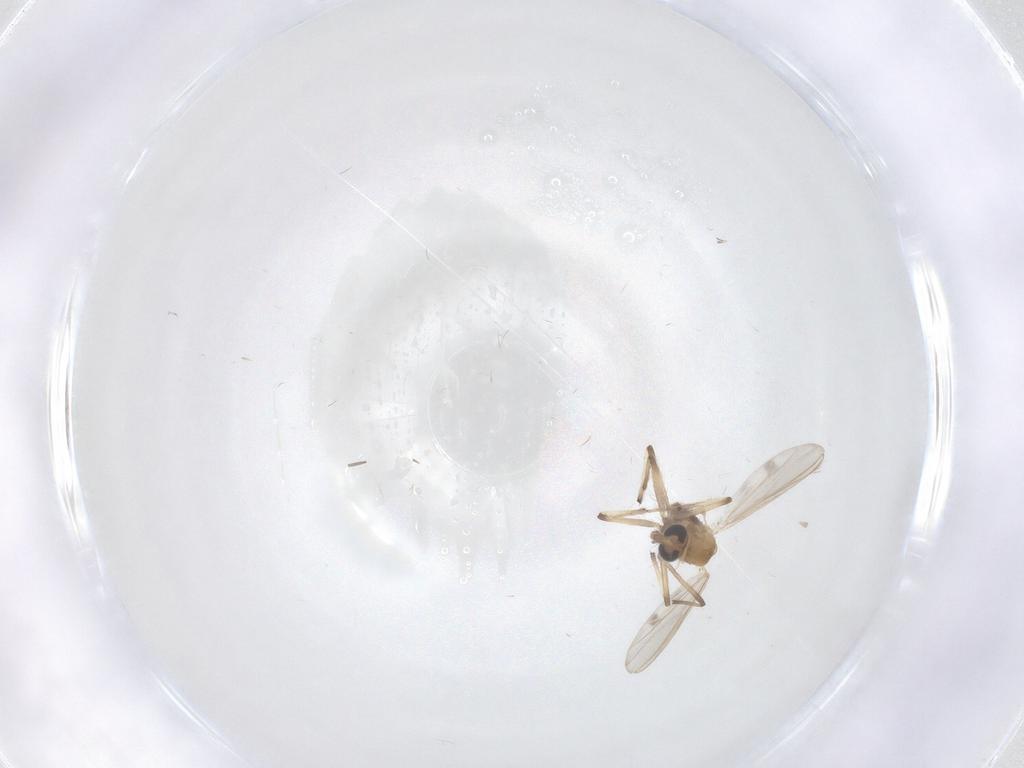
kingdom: Animalia
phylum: Arthropoda
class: Insecta
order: Diptera
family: Chironomidae
